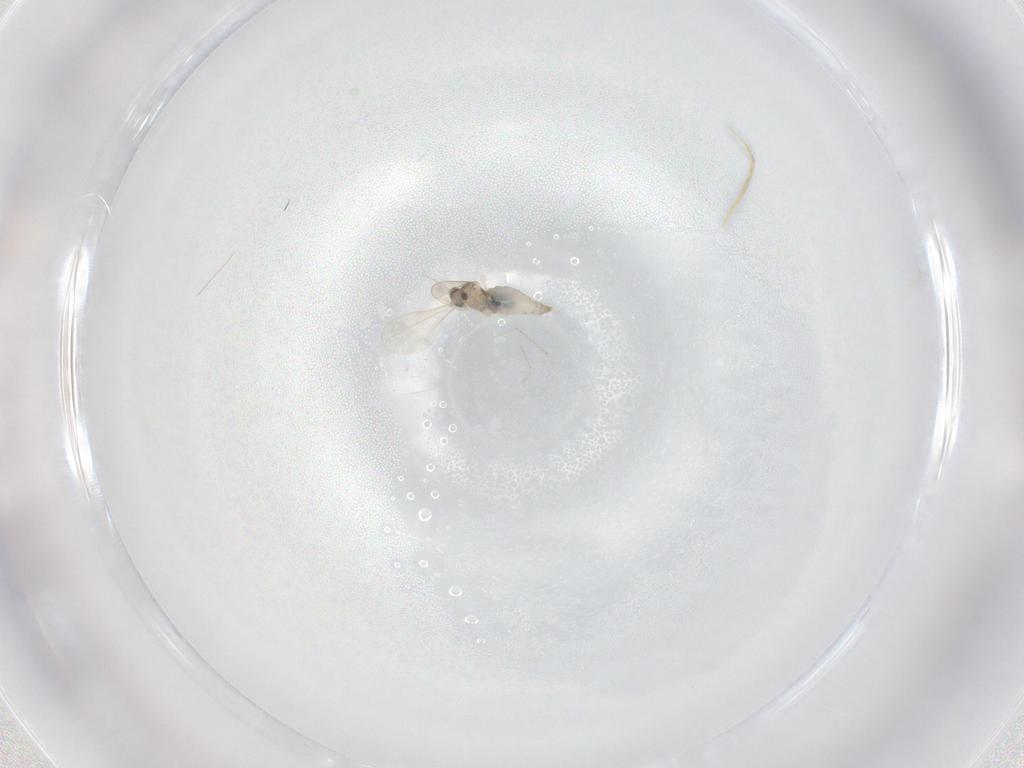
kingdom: Animalia
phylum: Arthropoda
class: Insecta
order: Diptera
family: Cecidomyiidae
